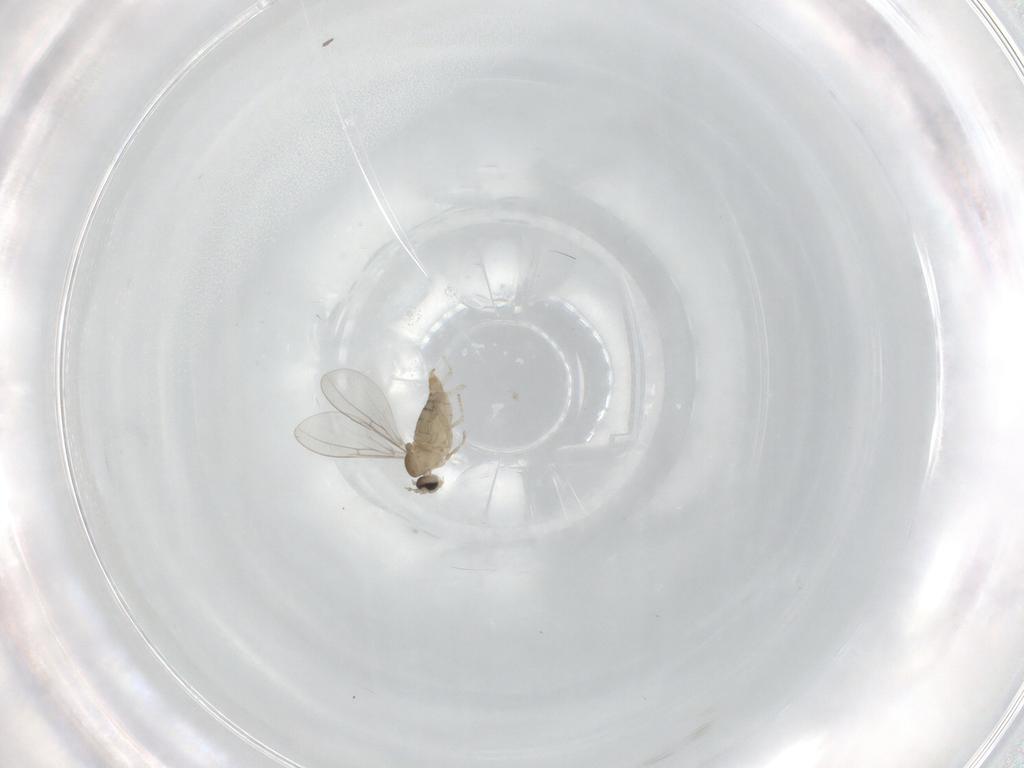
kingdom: Animalia
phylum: Arthropoda
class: Insecta
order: Diptera
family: Cecidomyiidae
